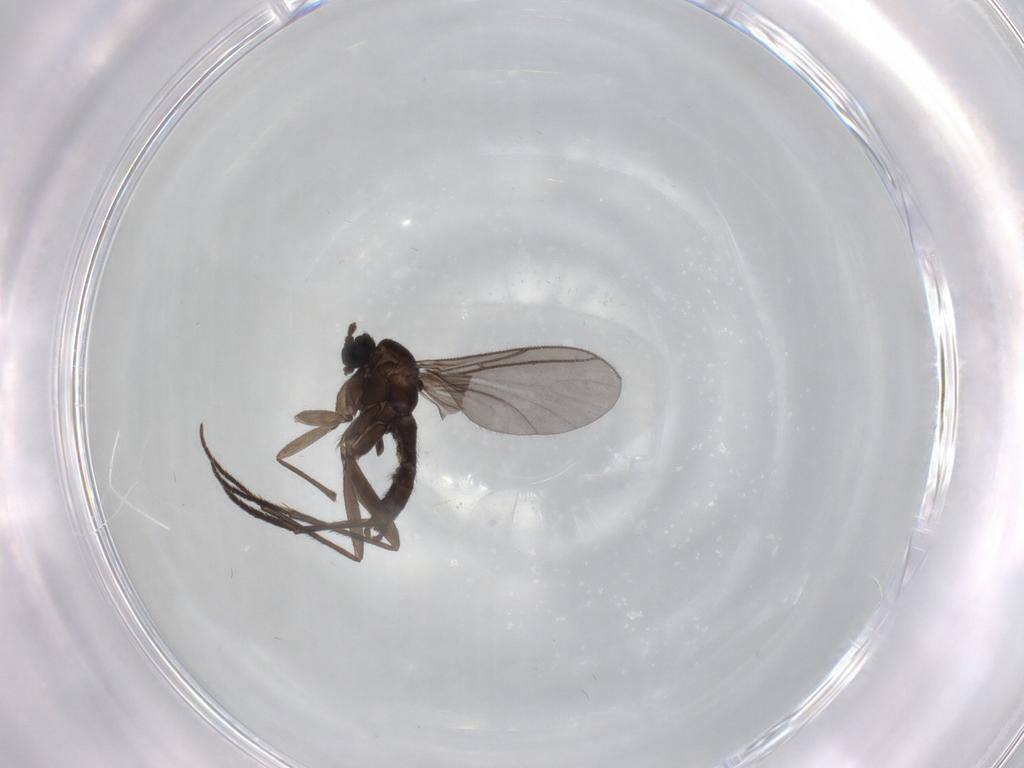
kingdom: Animalia
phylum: Arthropoda
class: Insecta
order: Diptera
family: Sciaridae
